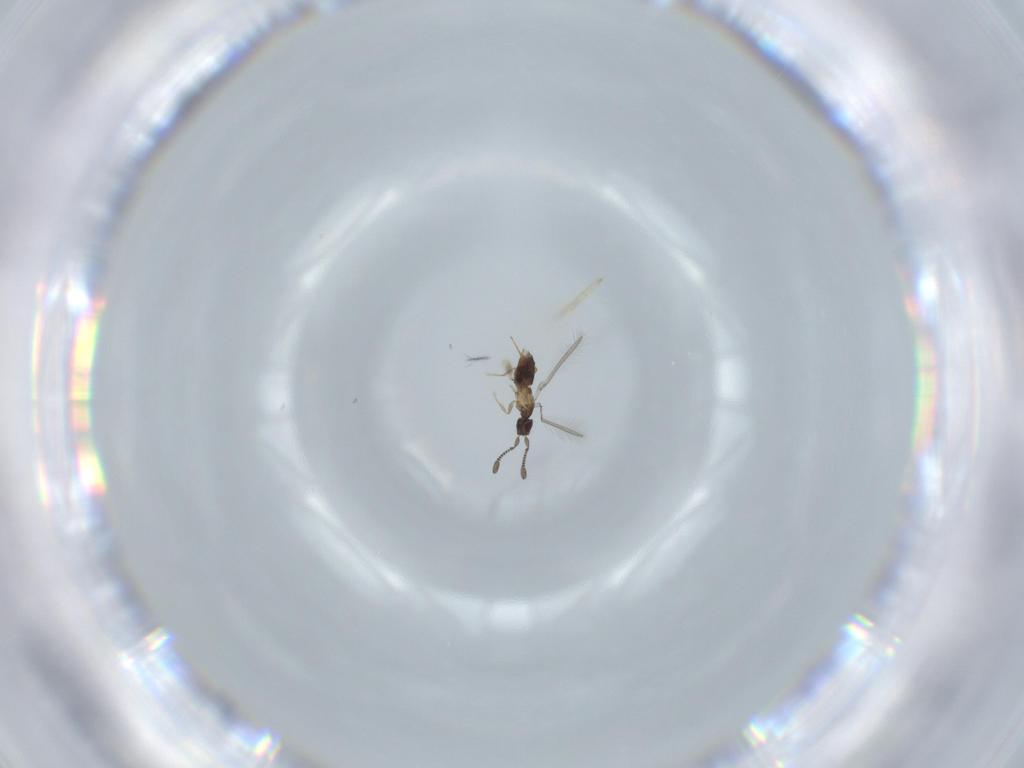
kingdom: Animalia
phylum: Arthropoda
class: Insecta
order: Hymenoptera
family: Mymaridae
